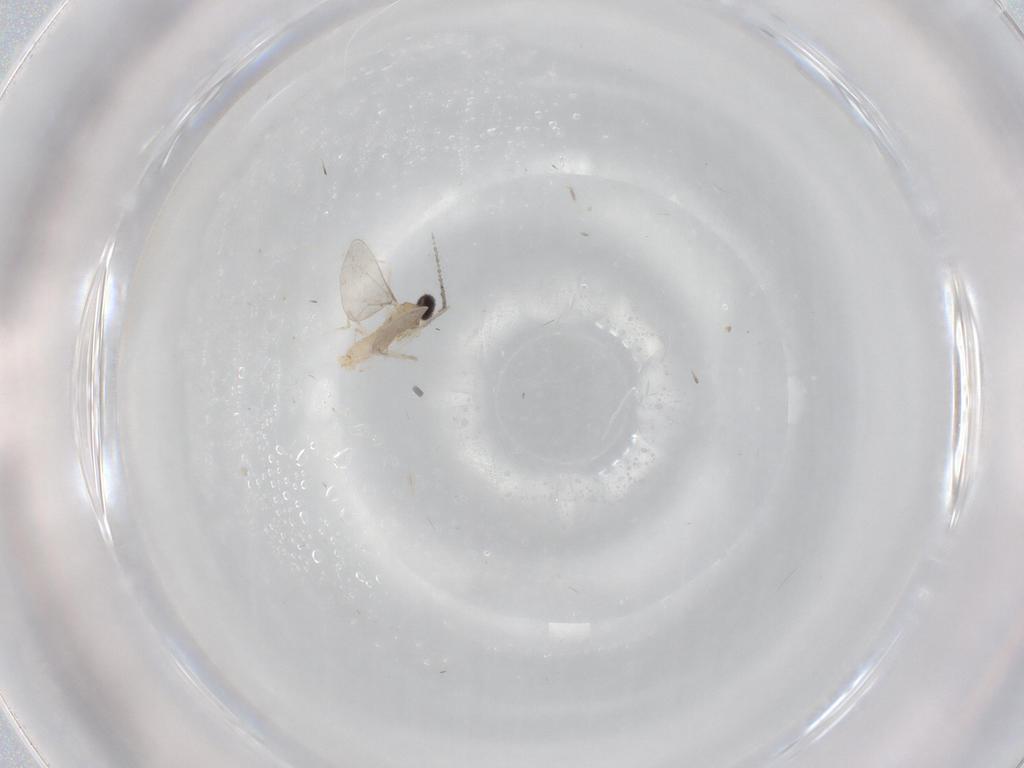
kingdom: Animalia
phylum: Arthropoda
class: Insecta
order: Diptera
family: Cecidomyiidae
